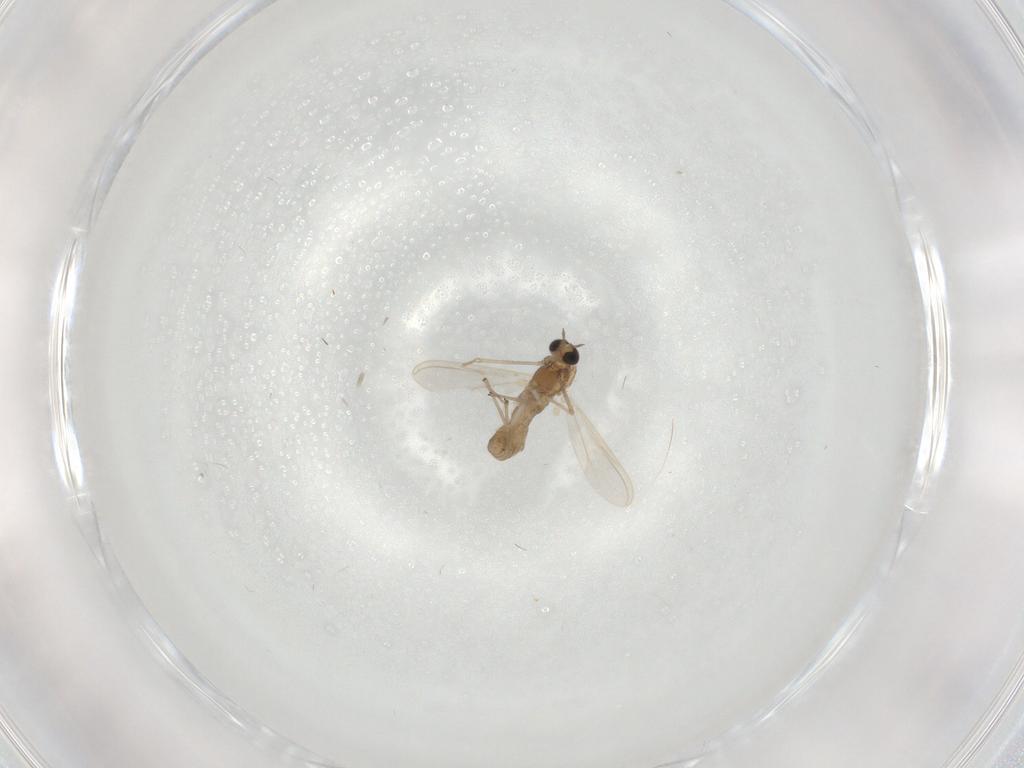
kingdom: Animalia
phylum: Arthropoda
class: Insecta
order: Diptera
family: Chironomidae
